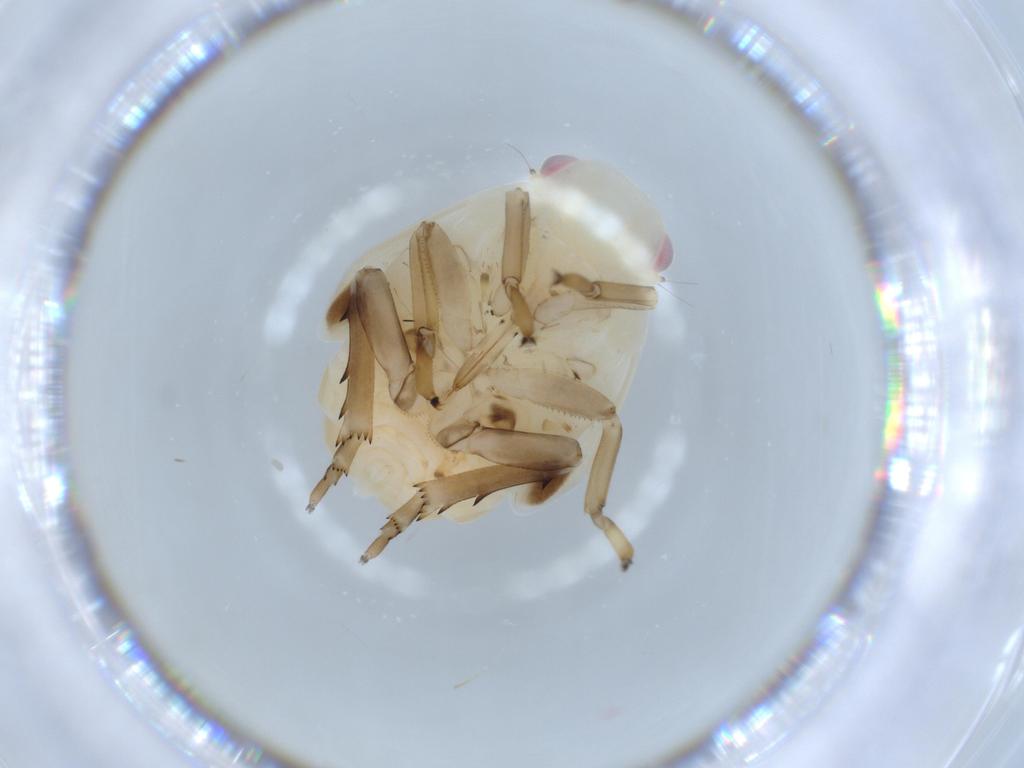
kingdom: Animalia
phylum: Arthropoda
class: Insecta
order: Hemiptera
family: Flatidae
